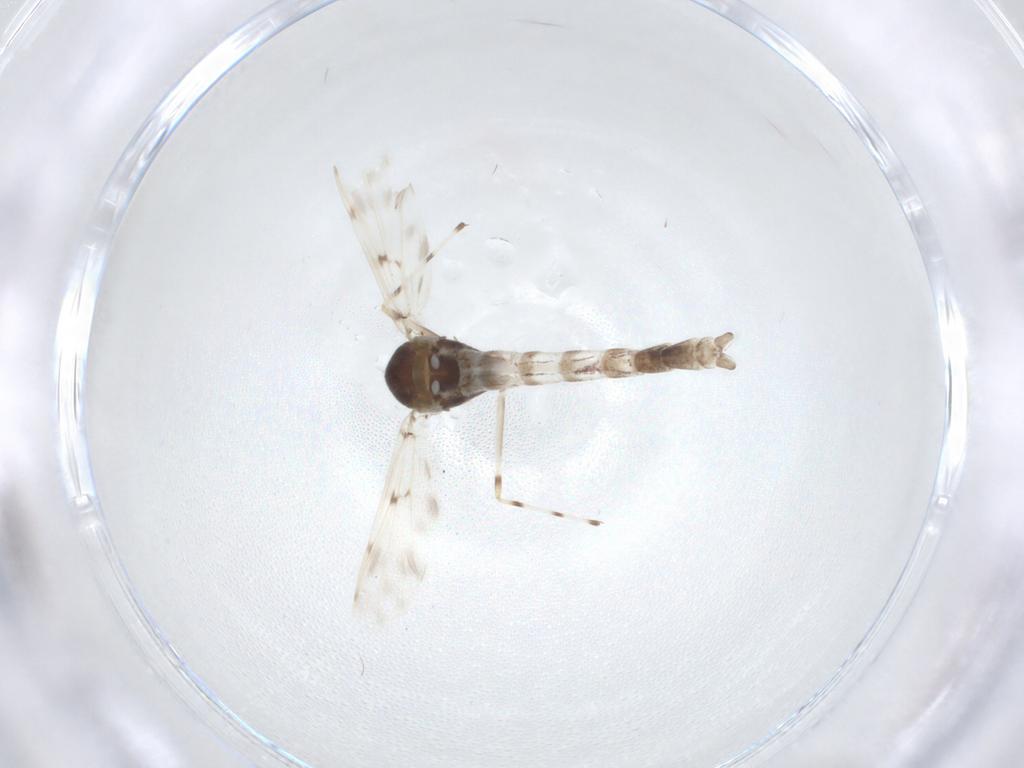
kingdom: Animalia
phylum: Arthropoda
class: Insecta
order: Diptera
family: Chironomidae
